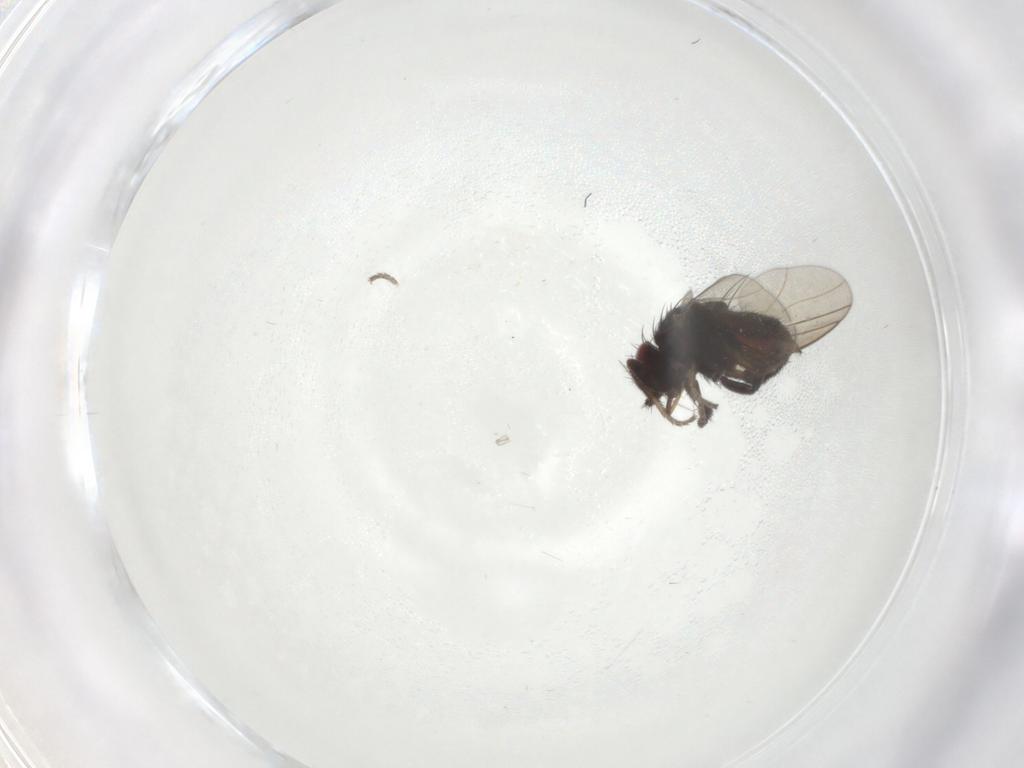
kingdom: Animalia
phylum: Arthropoda
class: Insecta
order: Diptera
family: Milichiidae
